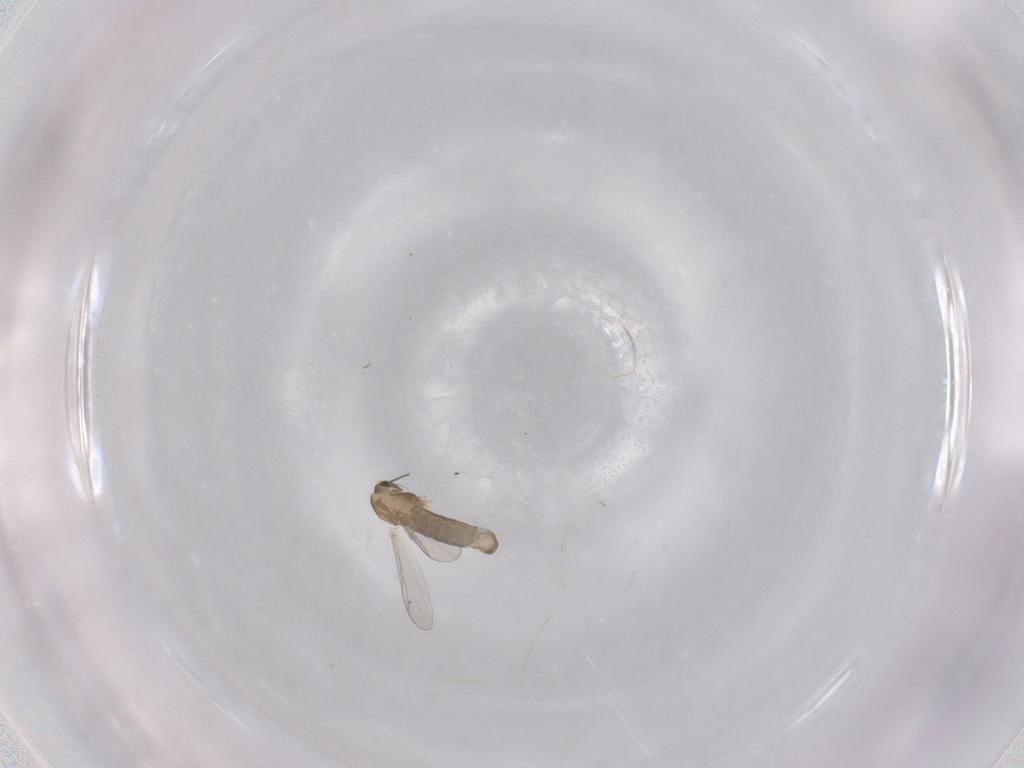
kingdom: Animalia
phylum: Arthropoda
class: Insecta
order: Diptera
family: Chironomidae
